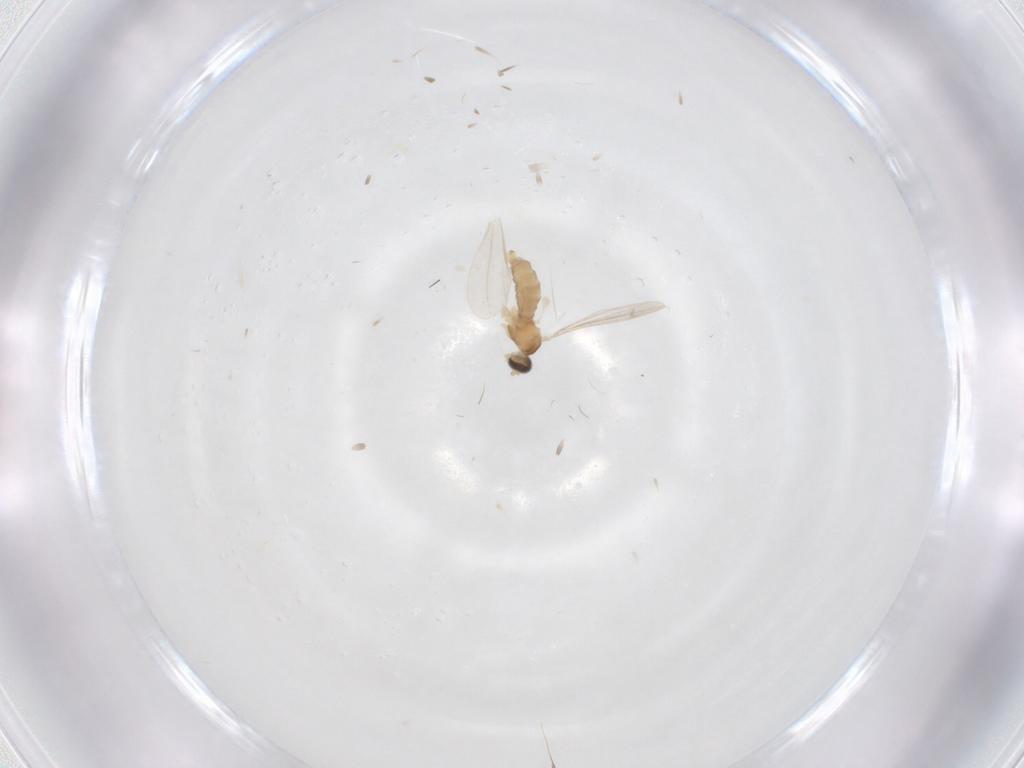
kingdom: Animalia
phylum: Arthropoda
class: Insecta
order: Diptera
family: Cecidomyiidae
